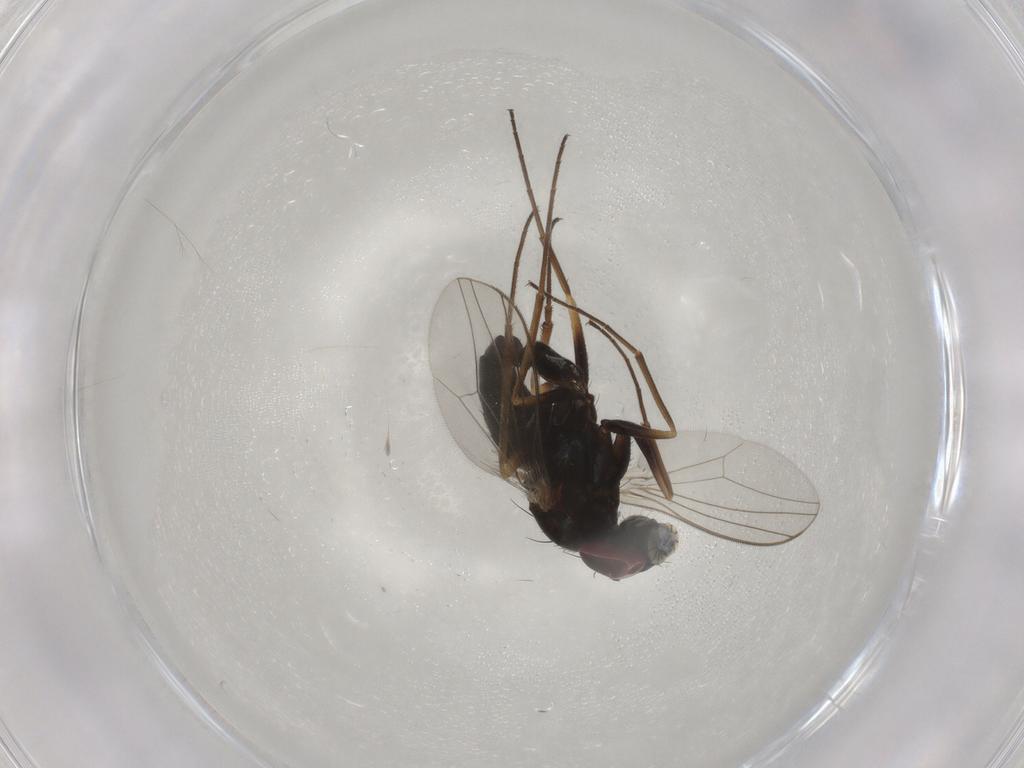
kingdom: Animalia
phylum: Arthropoda
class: Insecta
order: Diptera
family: Dolichopodidae
